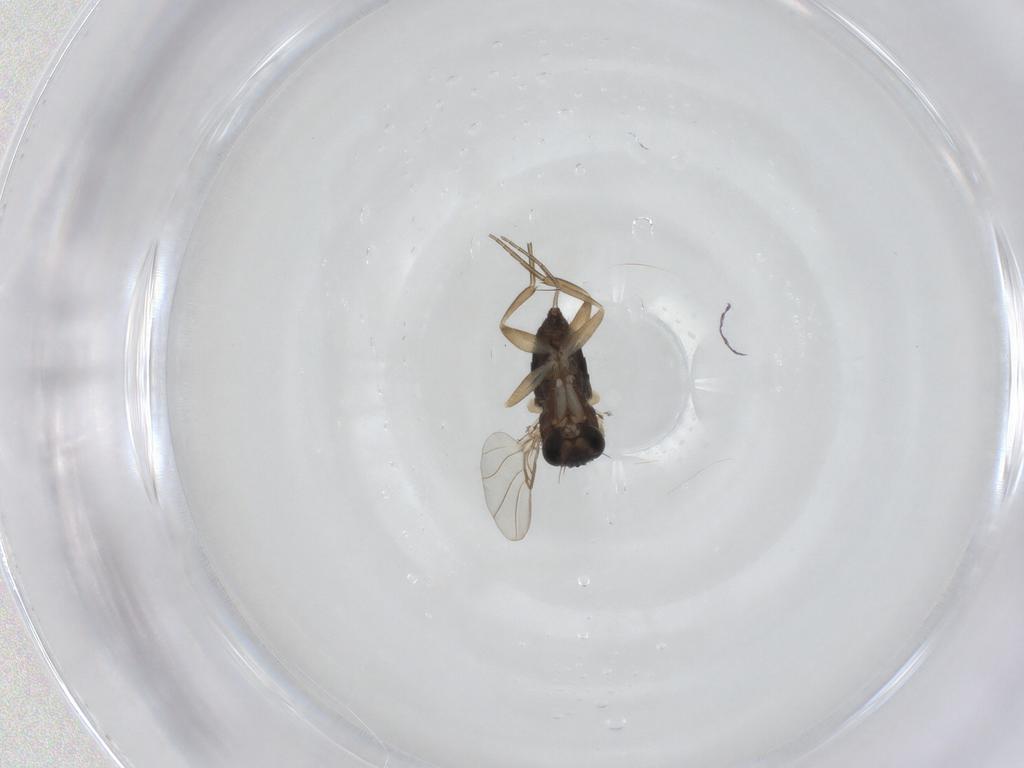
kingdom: Animalia
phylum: Arthropoda
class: Insecta
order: Diptera
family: Phoridae
